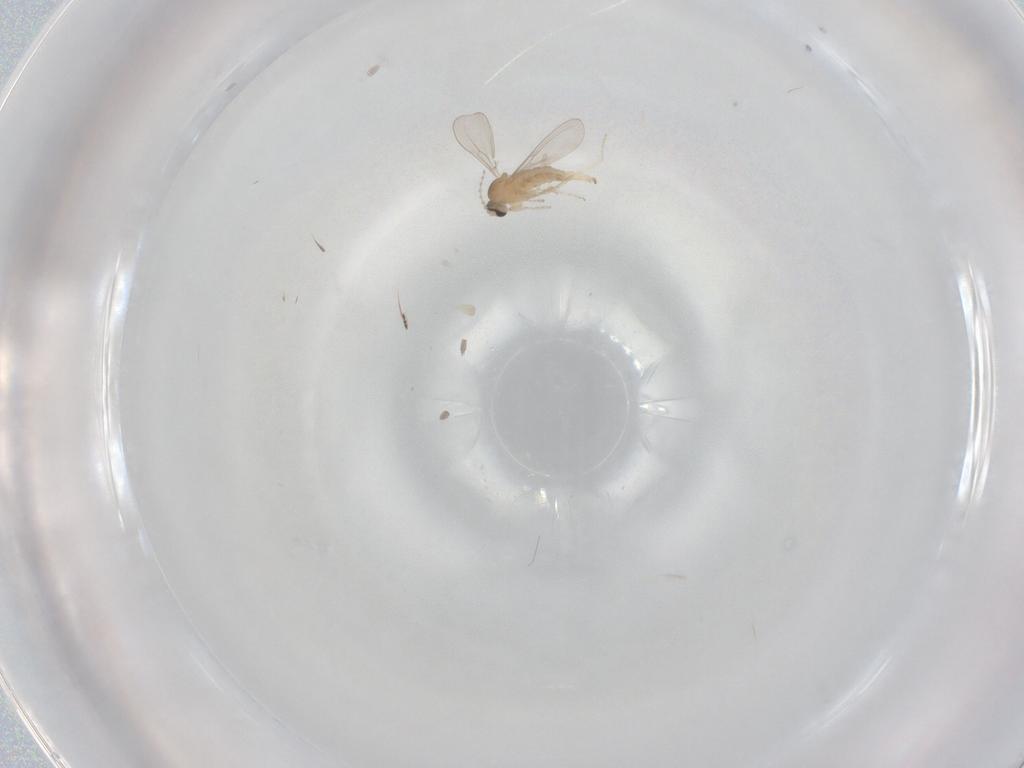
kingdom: Animalia
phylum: Arthropoda
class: Insecta
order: Diptera
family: Cecidomyiidae
